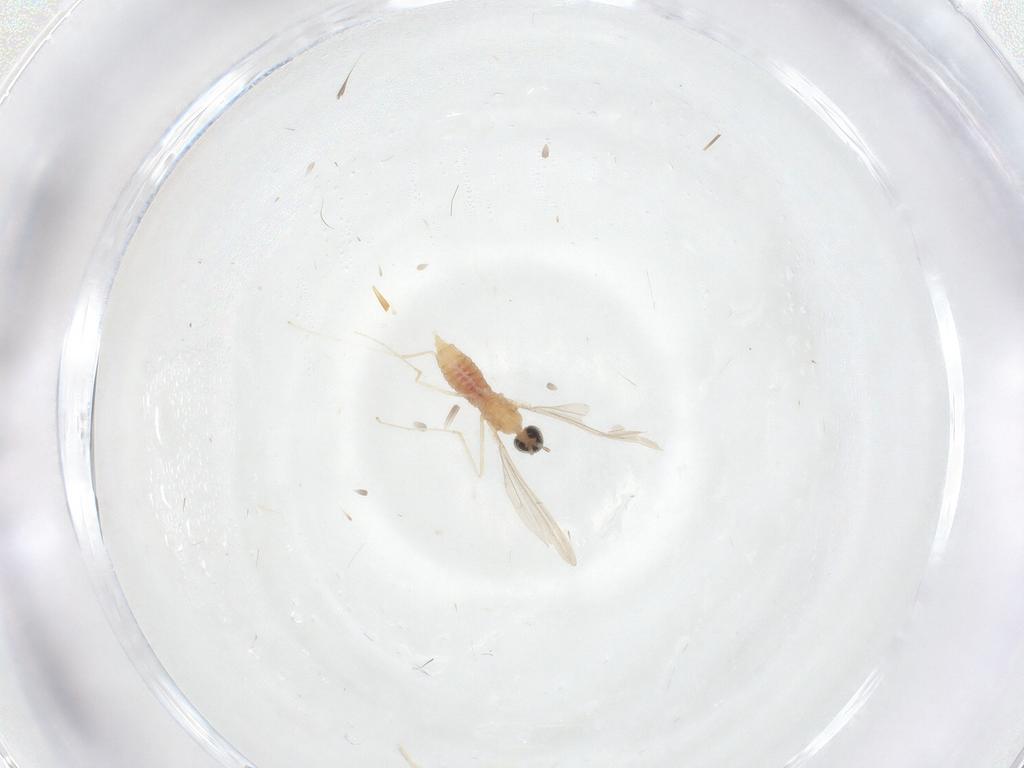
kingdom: Animalia
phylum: Arthropoda
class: Insecta
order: Diptera
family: Cecidomyiidae
